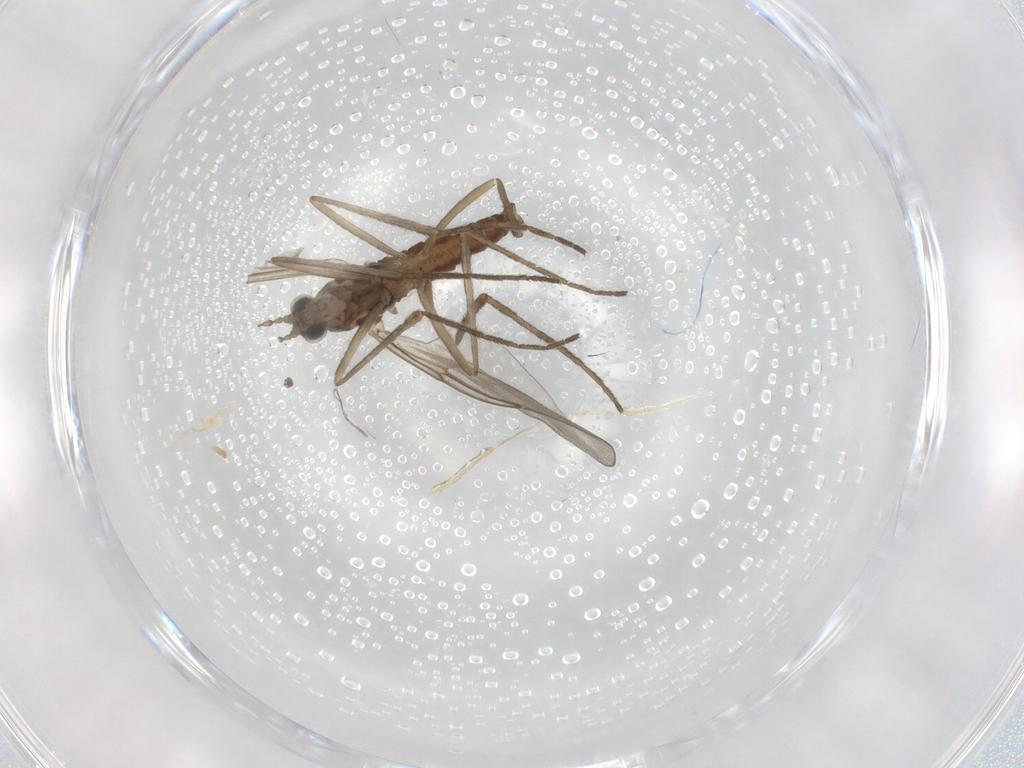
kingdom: Animalia
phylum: Arthropoda
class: Insecta
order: Diptera
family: Cecidomyiidae
